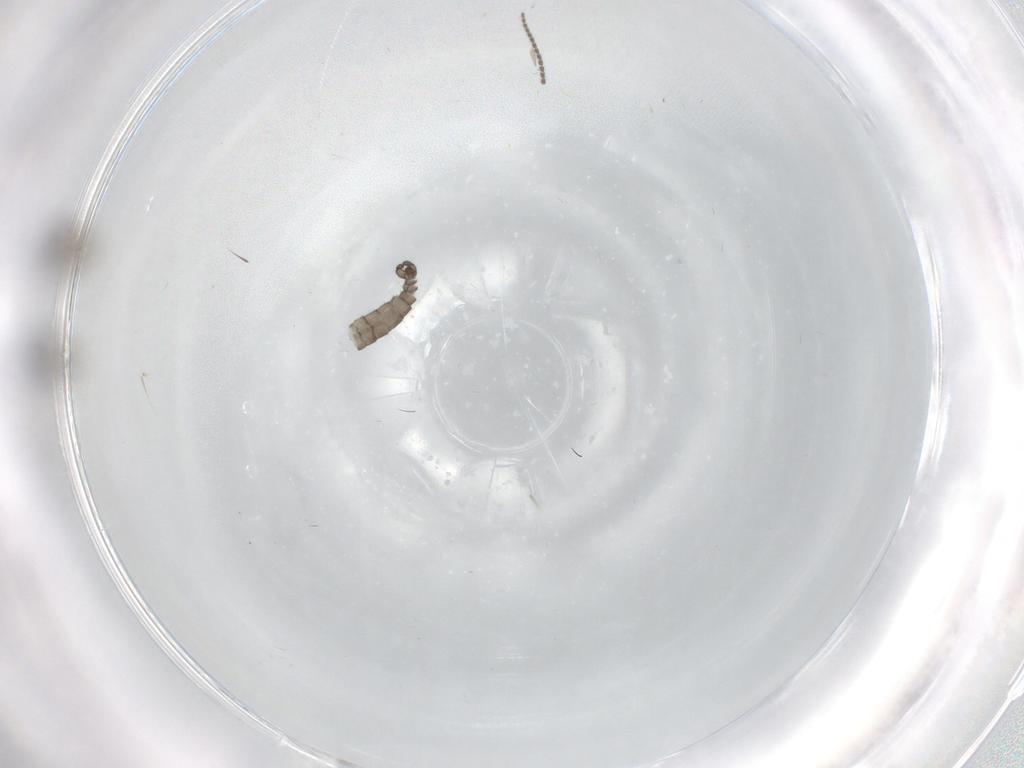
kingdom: Animalia
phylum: Arthropoda
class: Insecta
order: Diptera
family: Sciaridae
